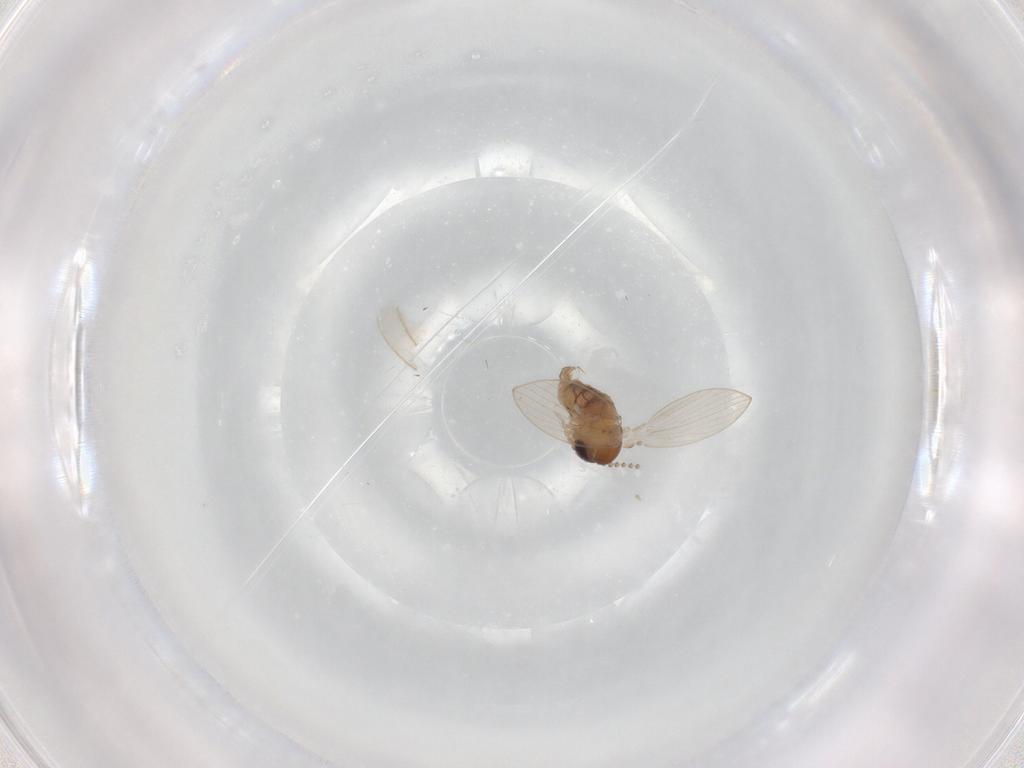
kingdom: Animalia
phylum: Arthropoda
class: Insecta
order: Diptera
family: Psychodidae
